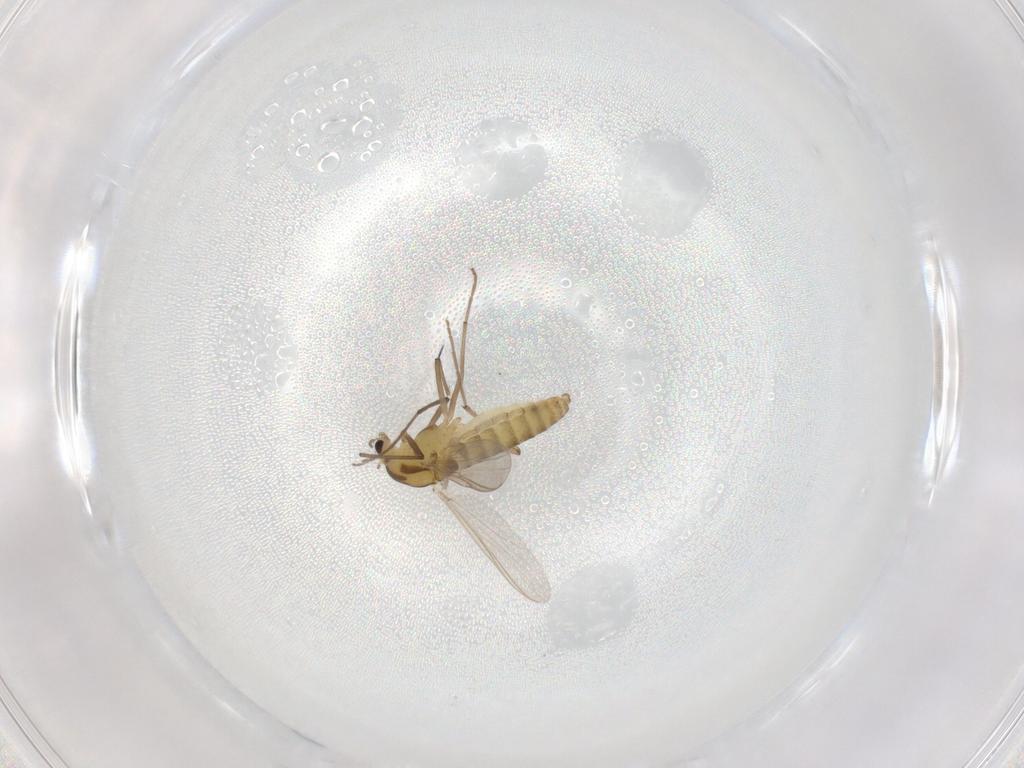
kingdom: Animalia
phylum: Arthropoda
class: Insecta
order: Diptera
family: Chironomidae
